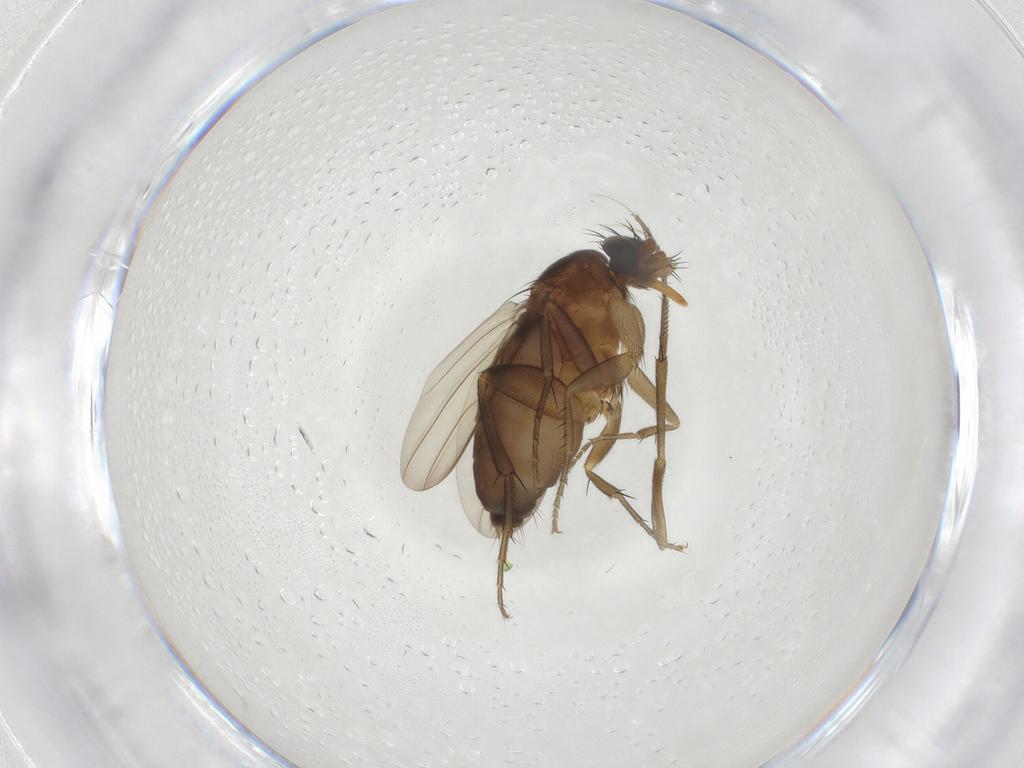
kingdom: Animalia
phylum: Arthropoda
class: Insecta
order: Diptera
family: Phoridae
